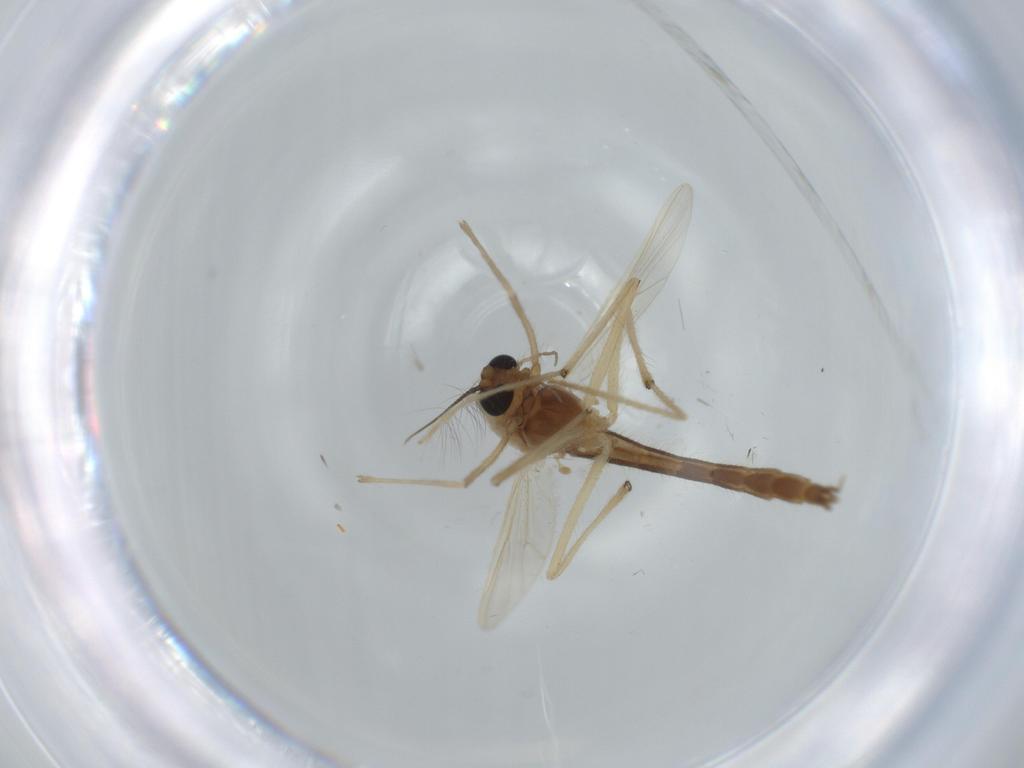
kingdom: Animalia
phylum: Arthropoda
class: Insecta
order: Diptera
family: Chironomidae
